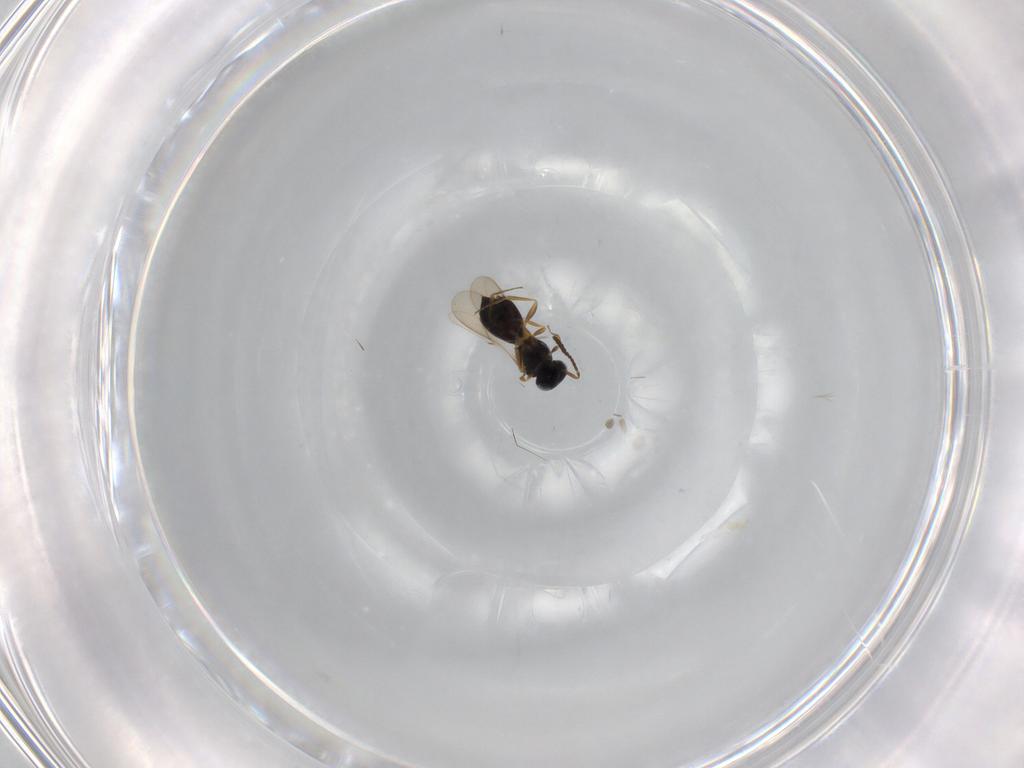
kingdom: Animalia
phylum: Arthropoda
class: Insecta
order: Hymenoptera
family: Scelionidae
